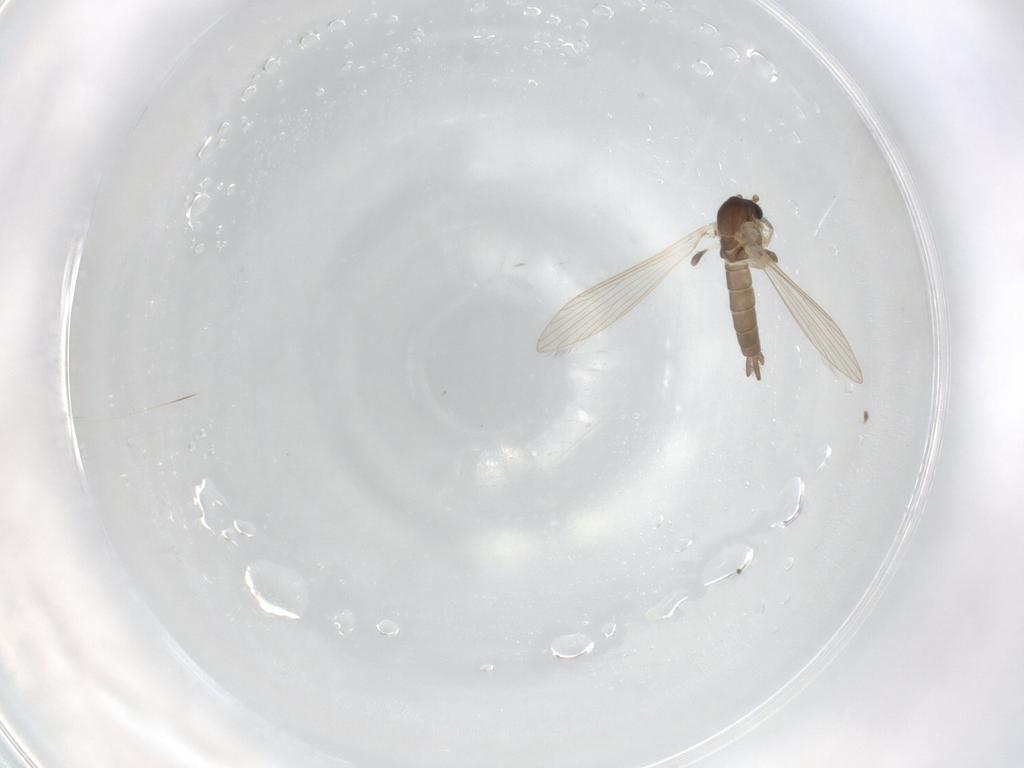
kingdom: Animalia
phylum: Arthropoda
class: Insecta
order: Diptera
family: Psychodidae
